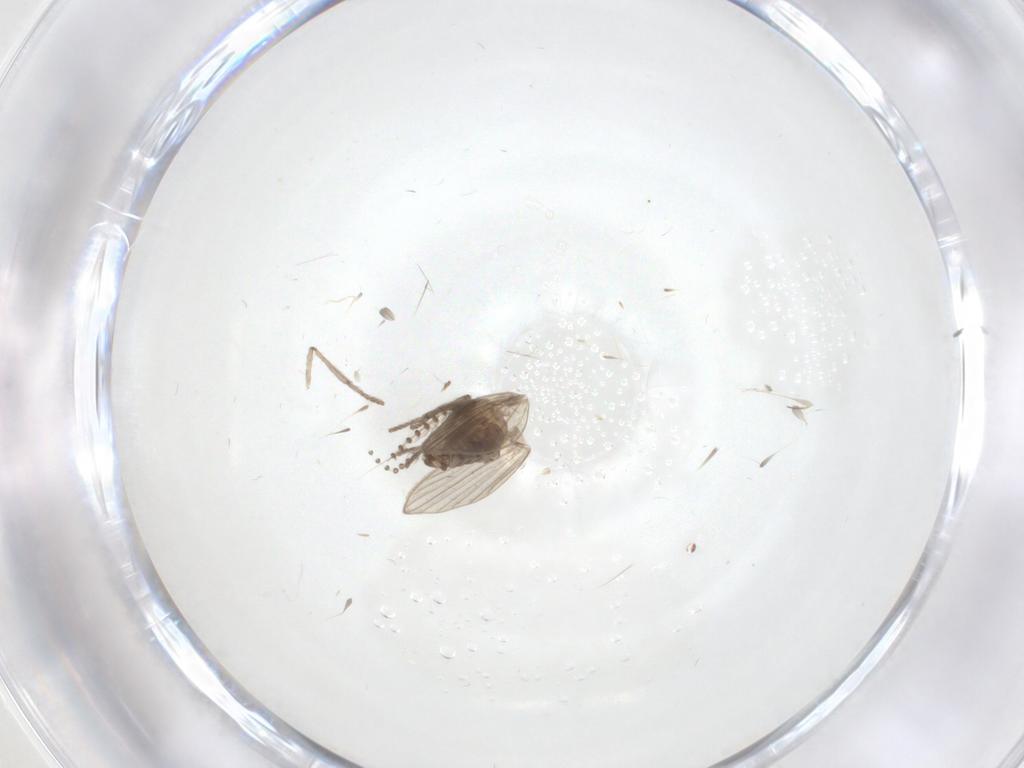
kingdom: Animalia
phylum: Arthropoda
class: Insecta
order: Diptera
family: Psychodidae
